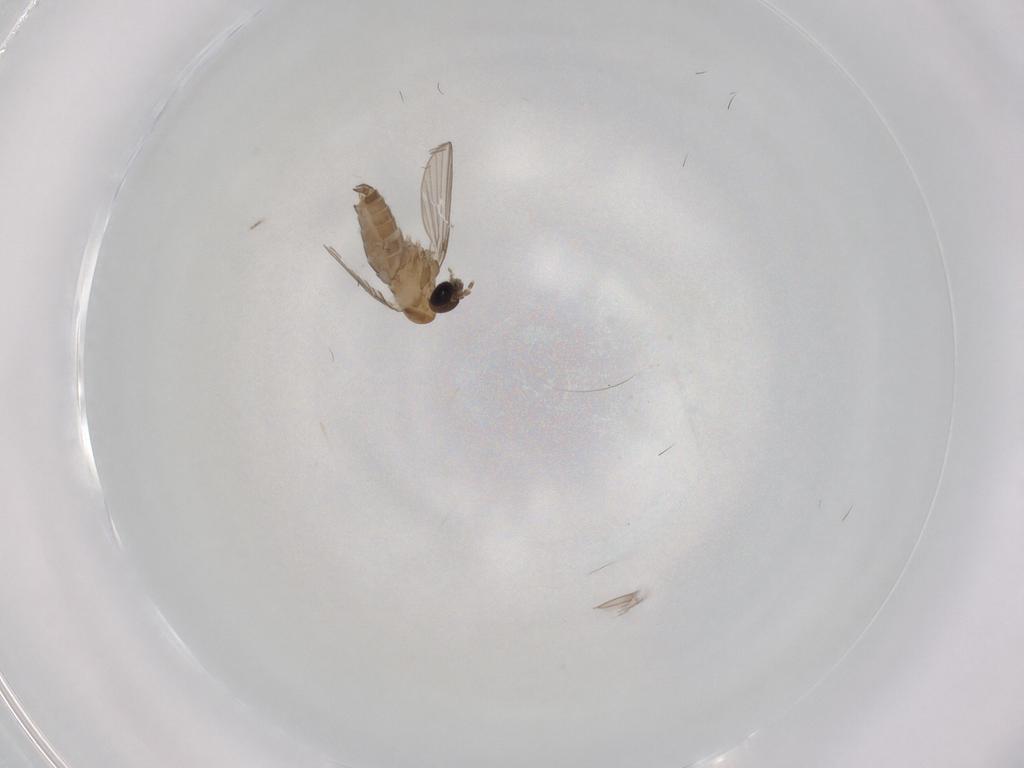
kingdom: Animalia
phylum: Arthropoda
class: Insecta
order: Diptera
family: Psychodidae
